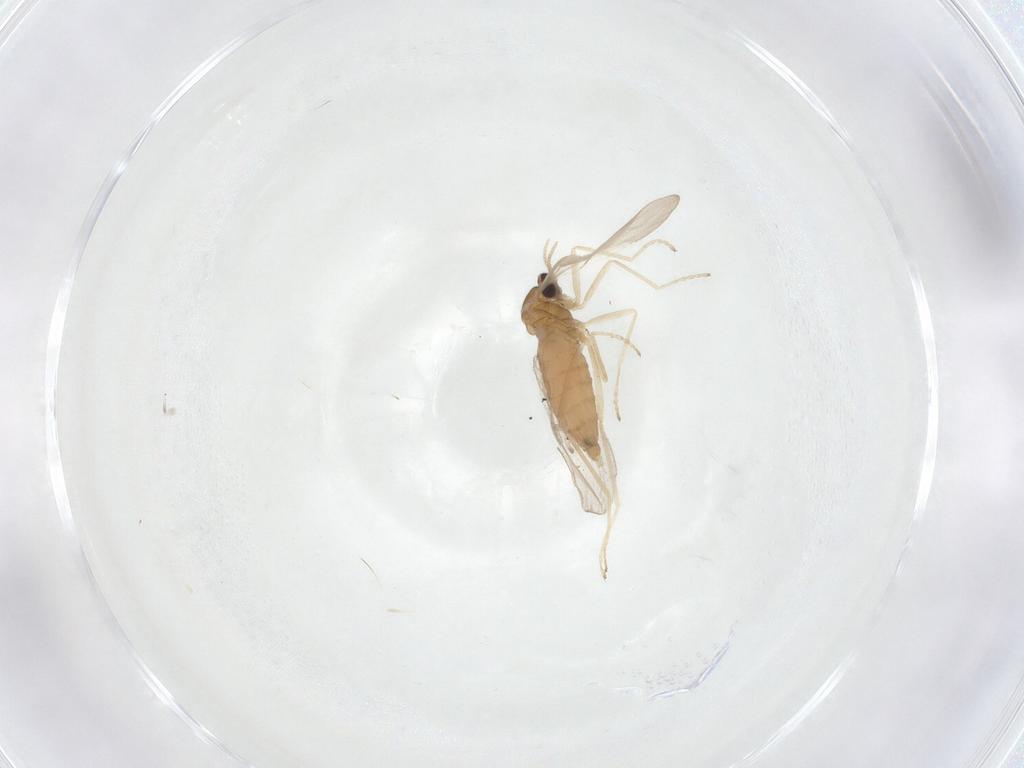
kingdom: Animalia
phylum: Arthropoda
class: Insecta
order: Diptera
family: Cecidomyiidae
